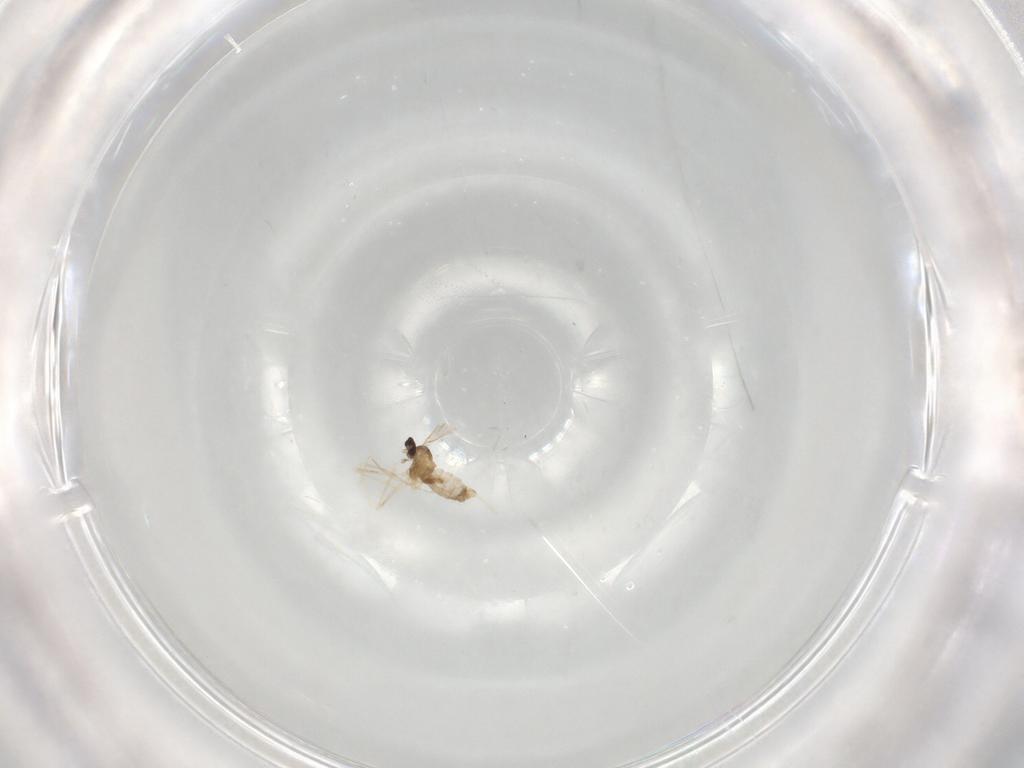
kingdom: Animalia
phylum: Arthropoda
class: Insecta
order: Diptera
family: Cecidomyiidae
